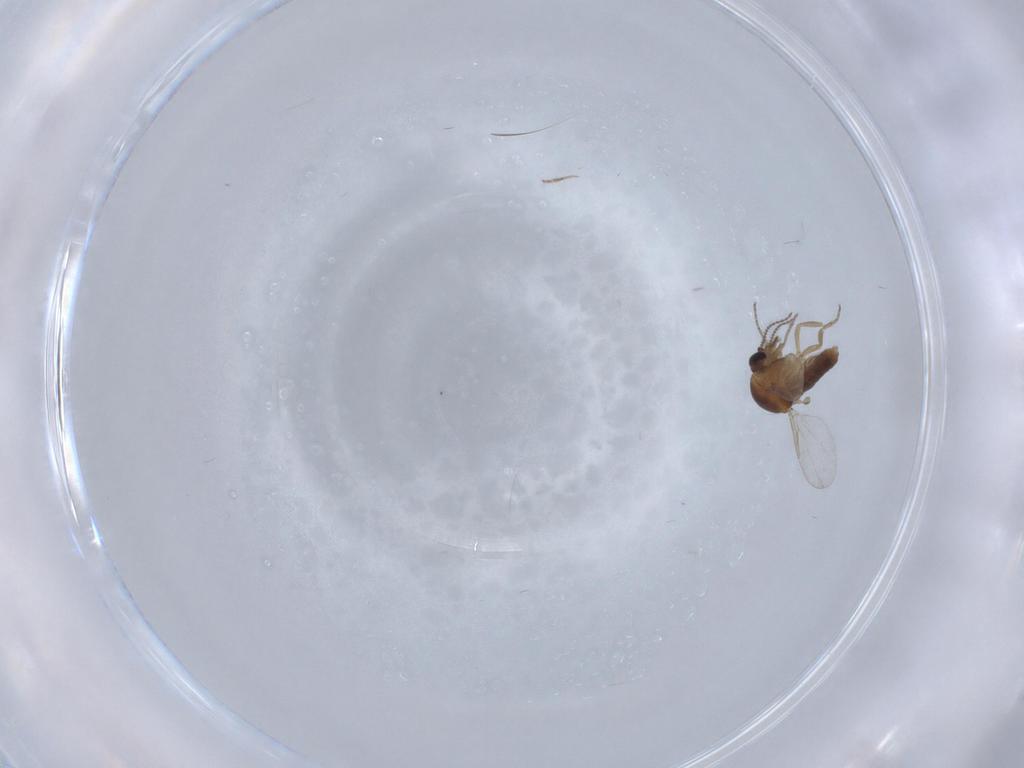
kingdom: Animalia
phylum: Arthropoda
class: Insecta
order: Diptera
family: Ceratopogonidae
